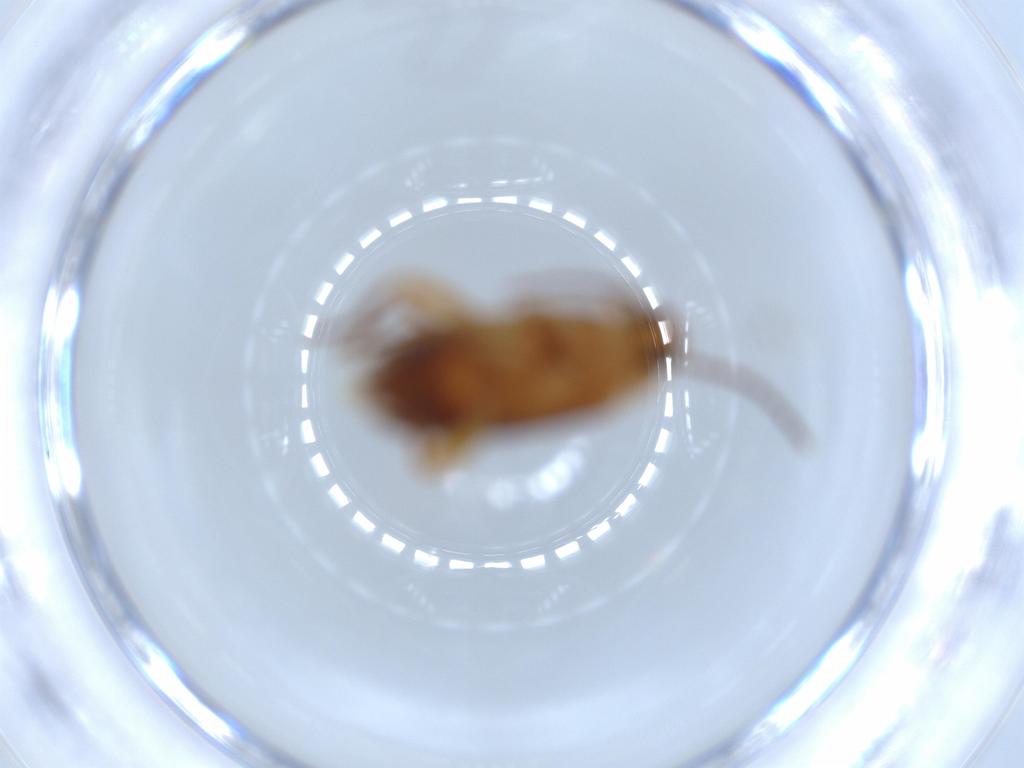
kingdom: Animalia
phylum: Arthropoda
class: Insecta
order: Coleoptera
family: Scraptiidae
